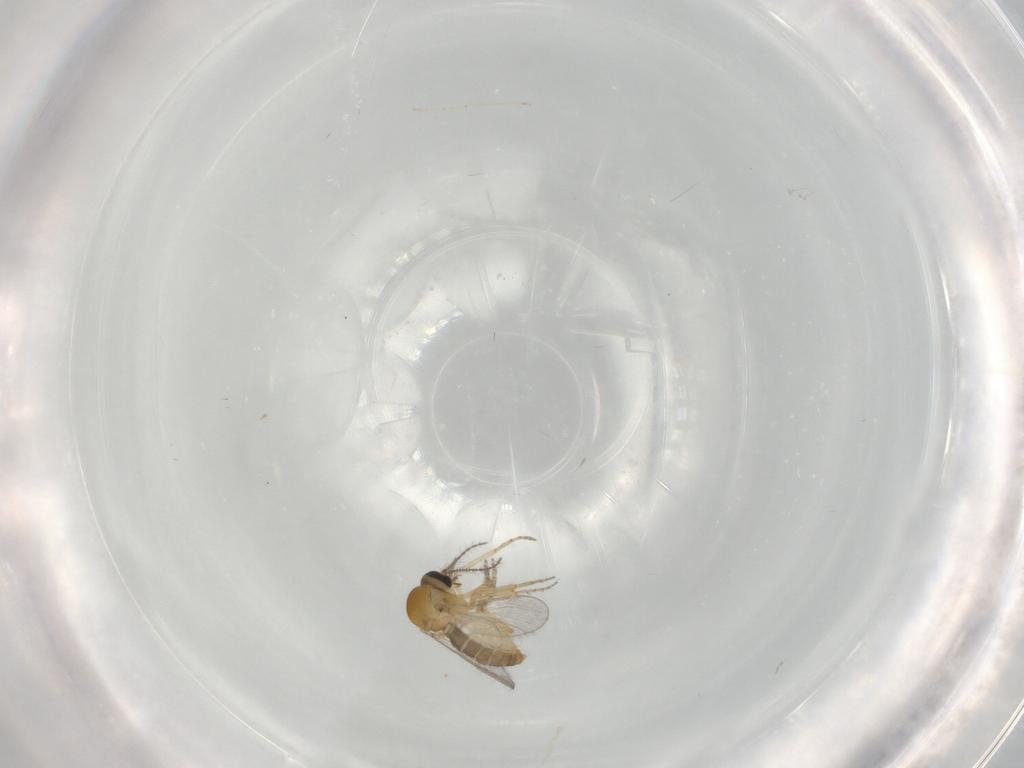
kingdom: Animalia
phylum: Arthropoda
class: Insecta
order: Diptera
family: Ceratopogonidae
